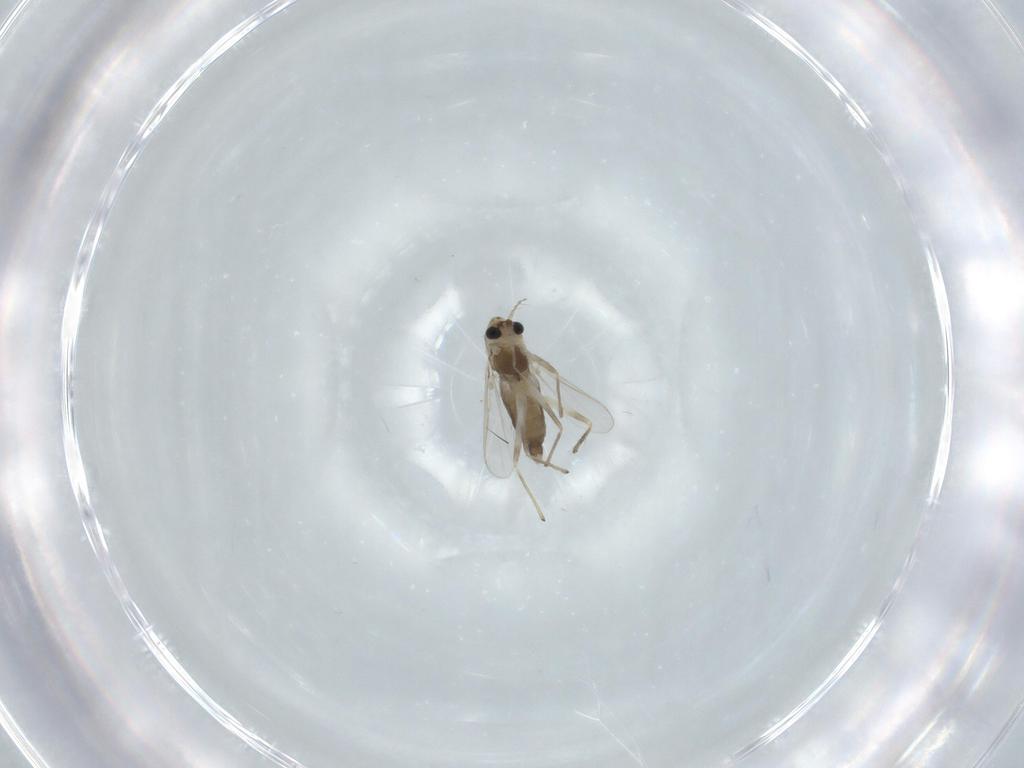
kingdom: Animalia
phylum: Arthropoda
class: Insecta
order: Diptera
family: Chironomidae
